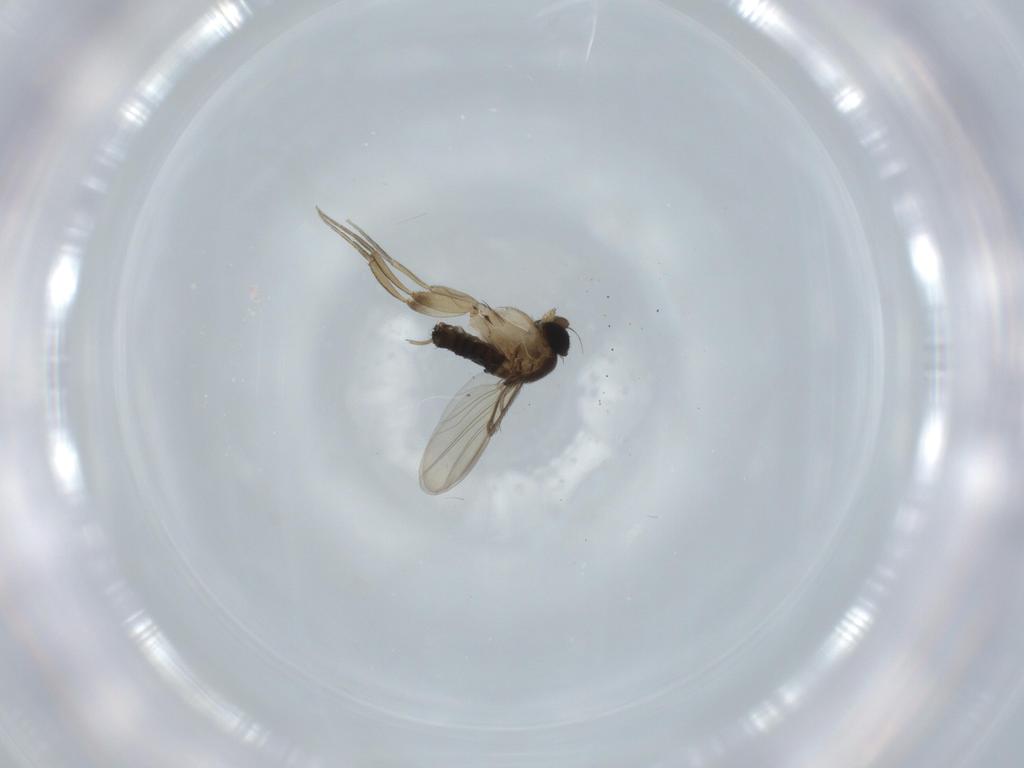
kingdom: Animalia
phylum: Arthropoda
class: Insecta
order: Diptera
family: Phoridae
